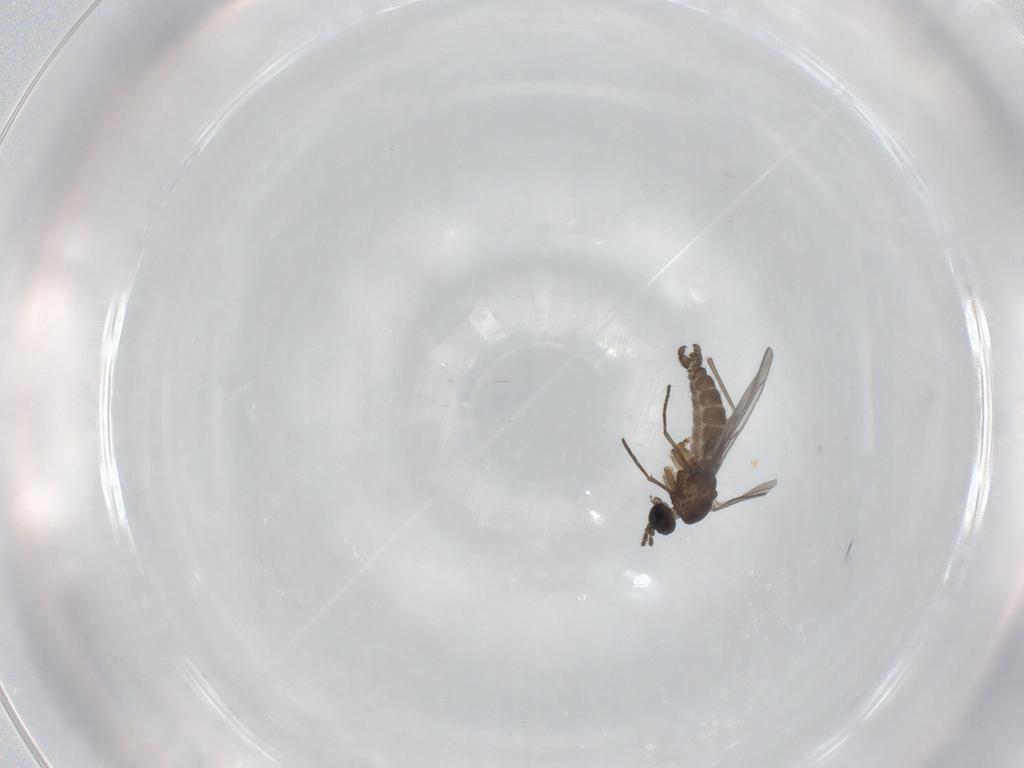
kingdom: Animalia
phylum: Arthropoda
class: Insecta
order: Diptera
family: Sciaridae
